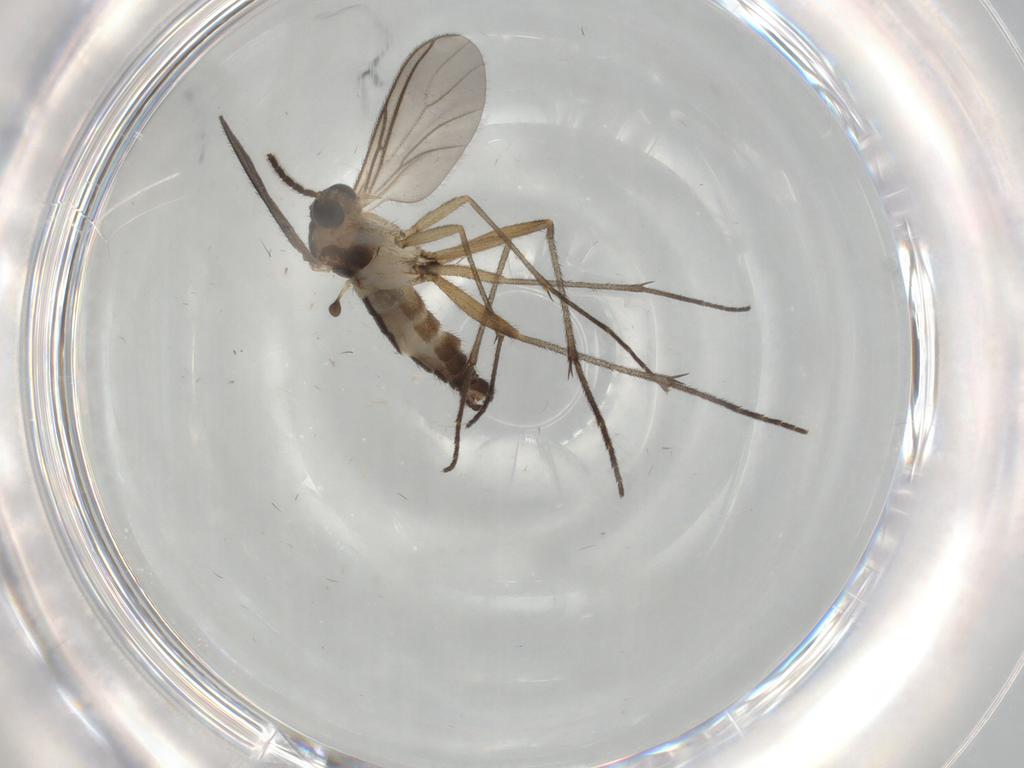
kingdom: Animalia
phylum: Arthropoda
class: Insecta
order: Diptera
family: Sciaridae
